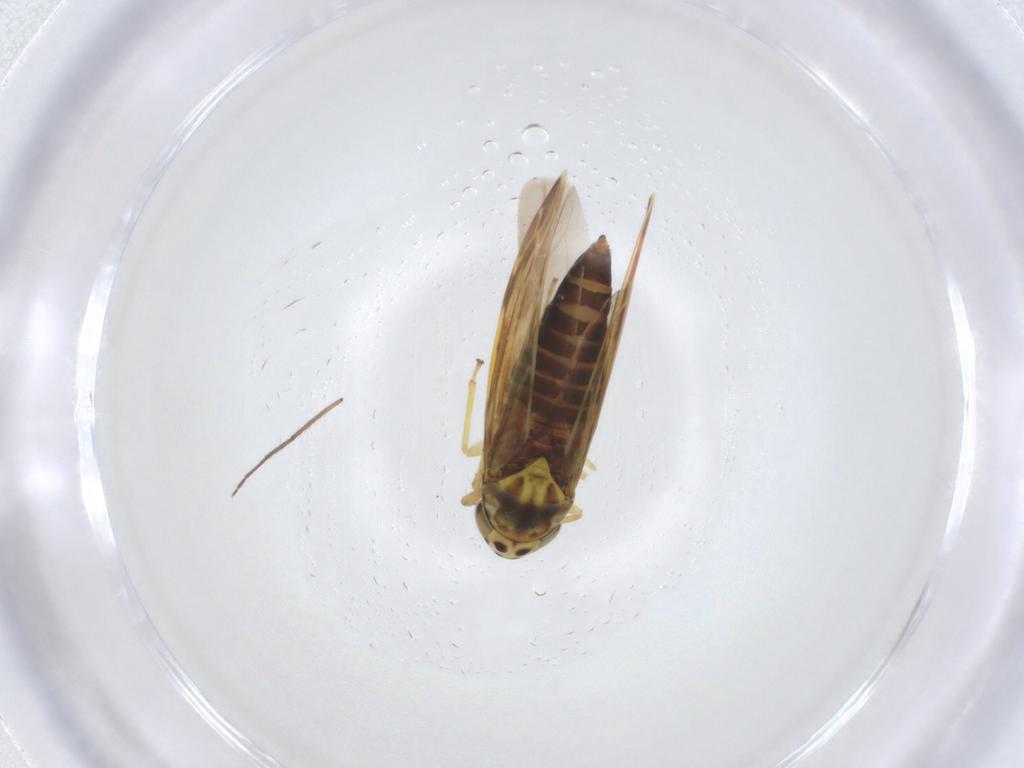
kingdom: Animalia
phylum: Arthropoda
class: Insecta
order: Hemiptera
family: Cicadellidae
